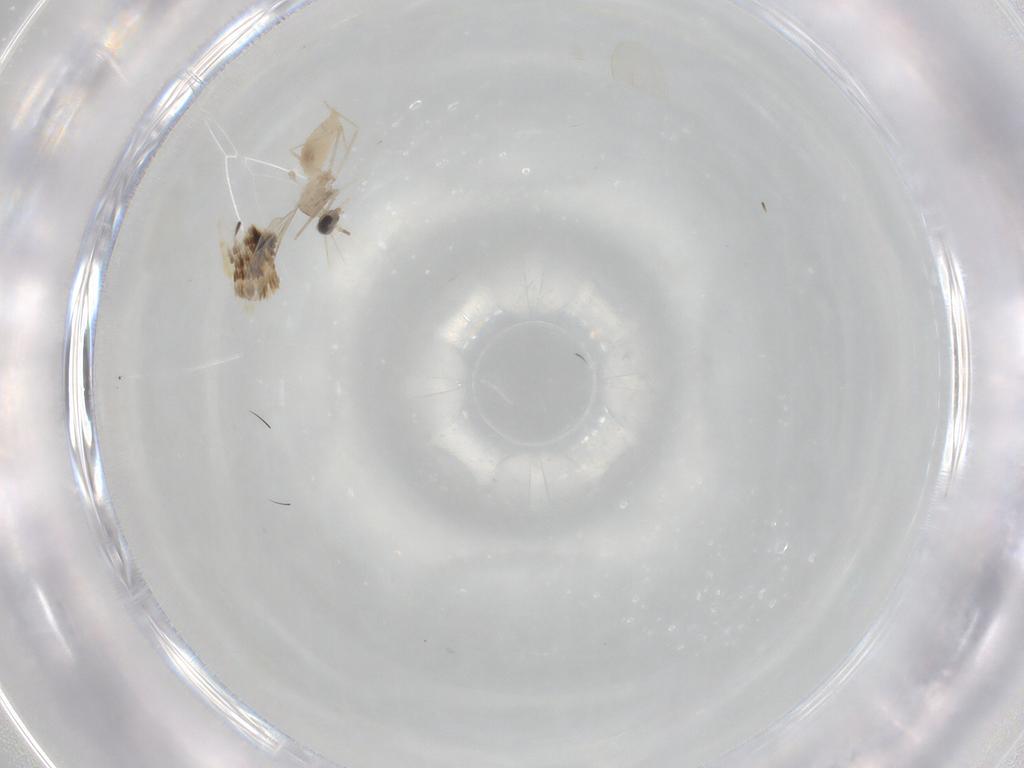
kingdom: Animalia
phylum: Arthropoda
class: Insecta
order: Diptera
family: Cecidomyiidae
